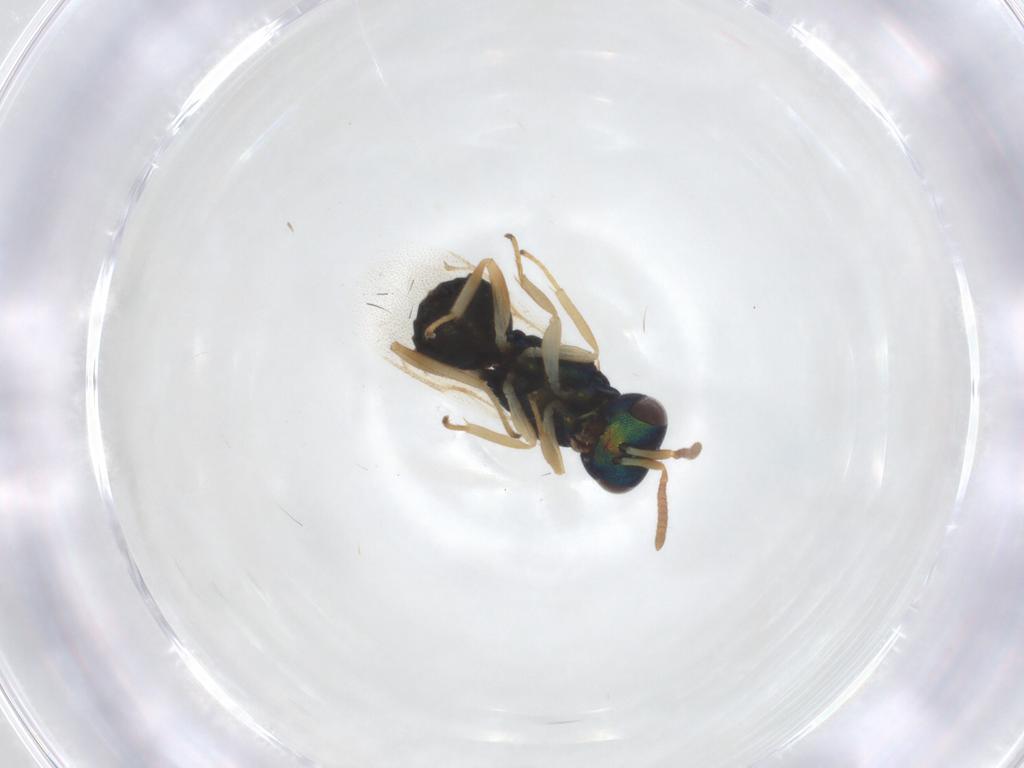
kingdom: Animalia
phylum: Arthropoda
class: Insecta
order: Hymenoptera
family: Pteromalidae
